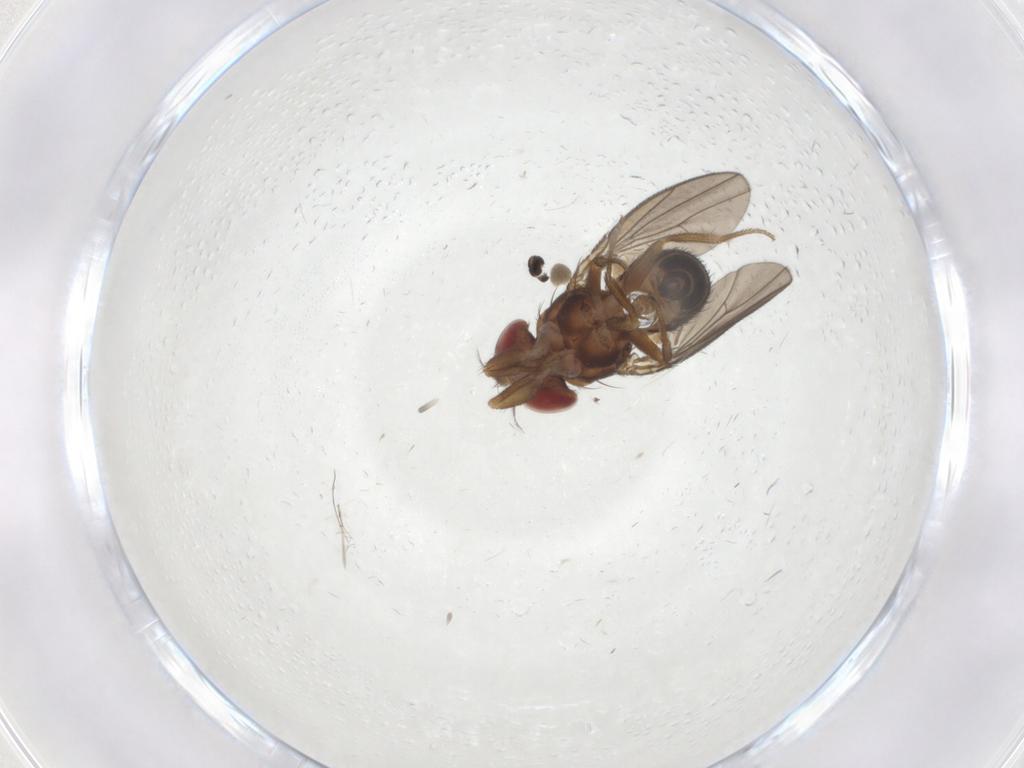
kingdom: Animalia
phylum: Arthropoda
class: Insecta
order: Diptera
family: Drosophilidae
